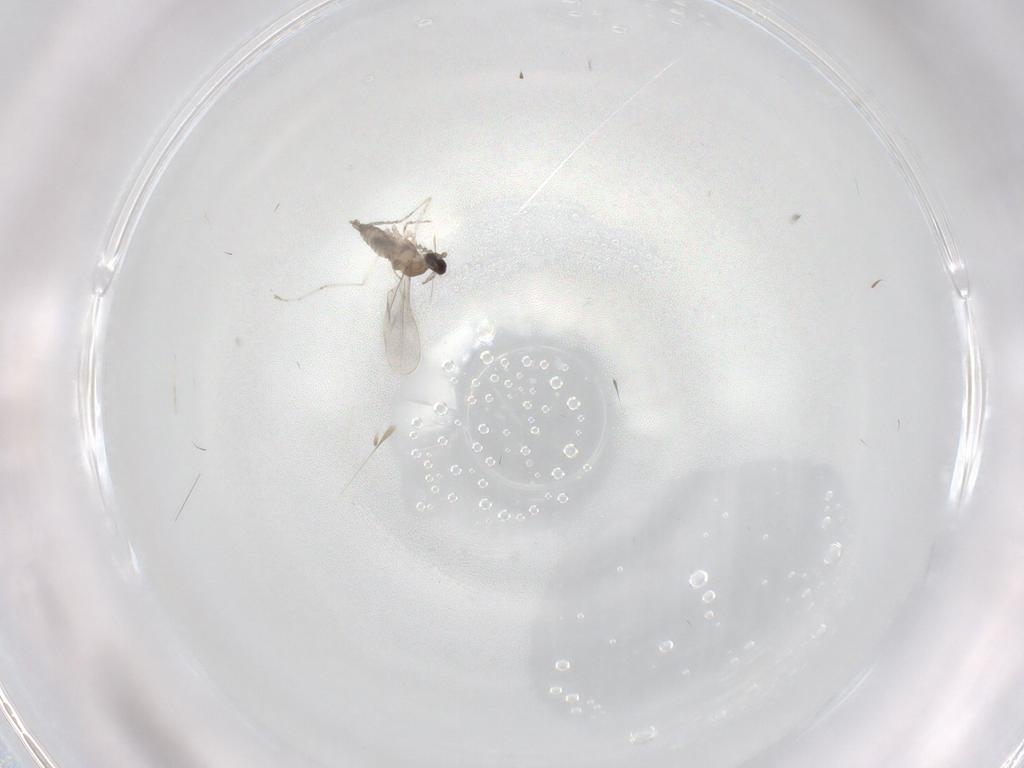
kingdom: Animalia
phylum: Arthropoda
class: Insecta
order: Diptera
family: Cecidomyiidae
